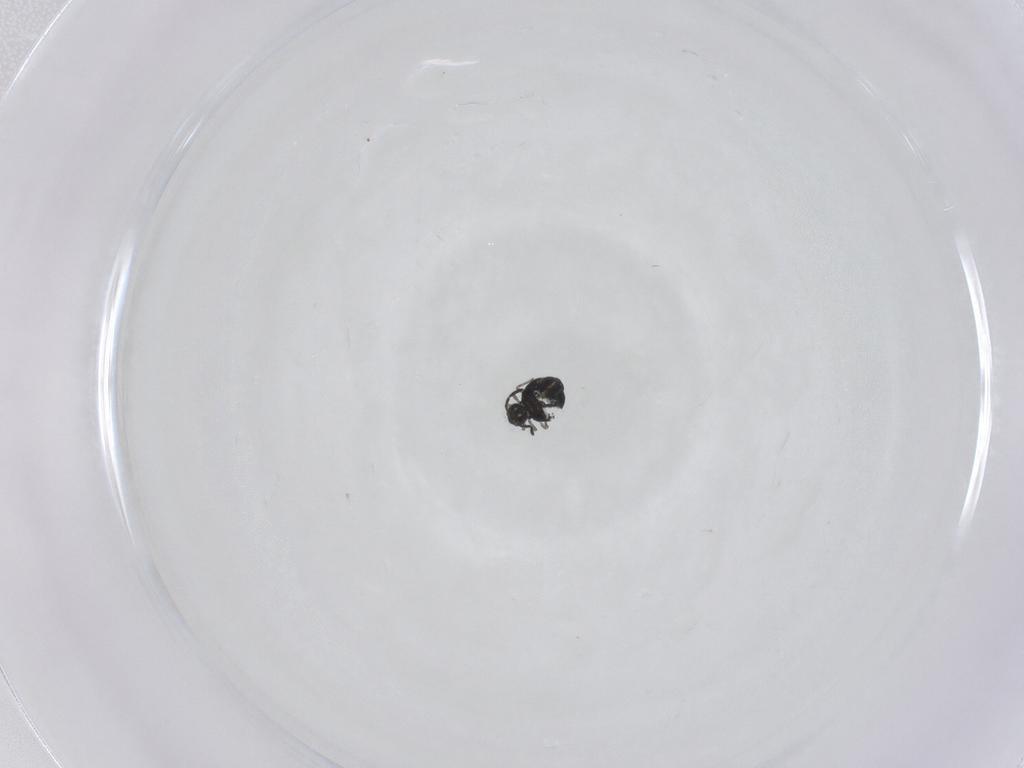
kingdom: Animalia
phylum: Arthropoda
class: Collembola
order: Symphypleona
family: Katiannidae
